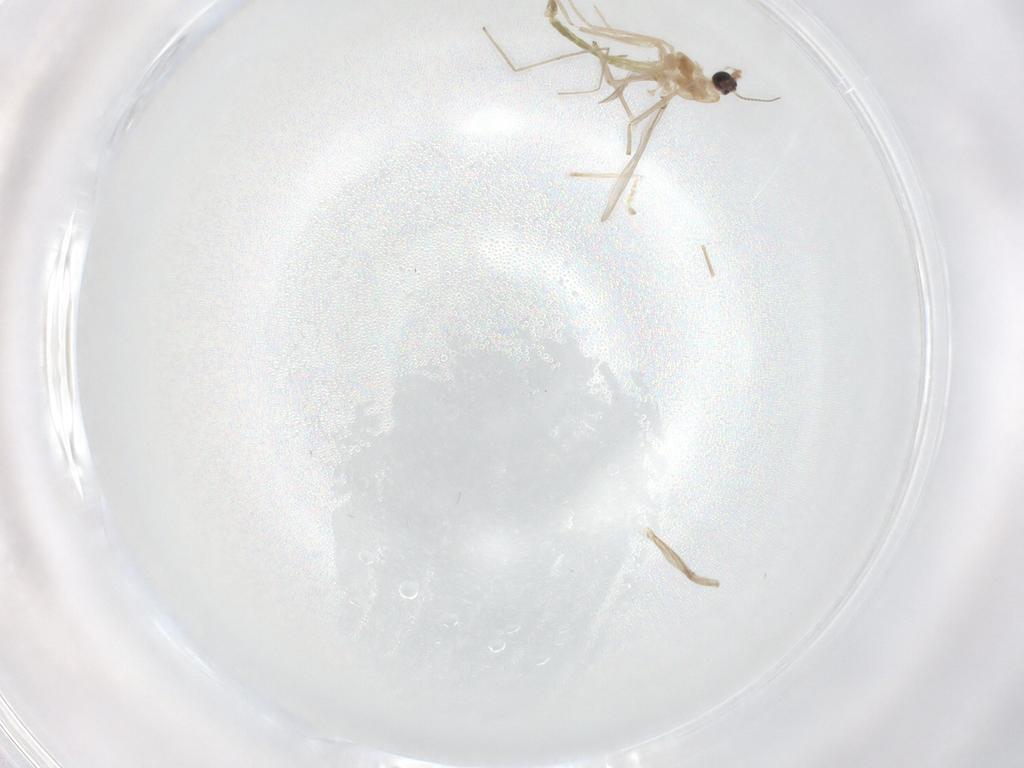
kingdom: Animalia
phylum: Arthropoda
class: Insecta
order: Diptera
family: Chironomidae
